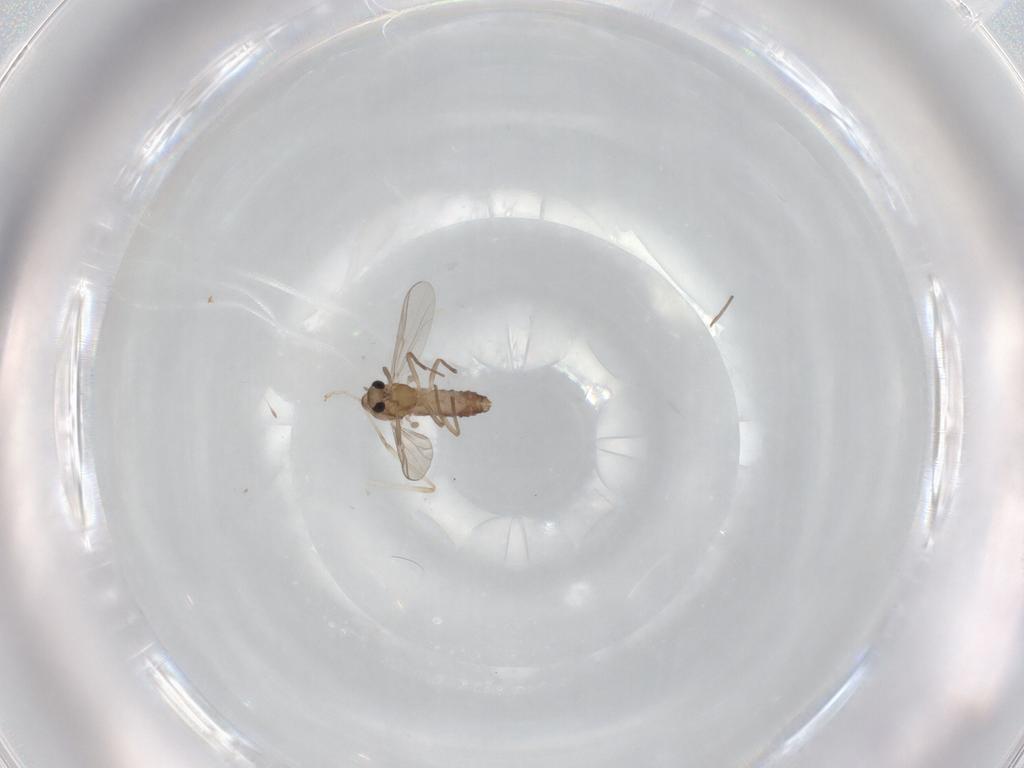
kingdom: Animalia
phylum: Arthropoda
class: Insecta
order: Diptera
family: Chironomidae
